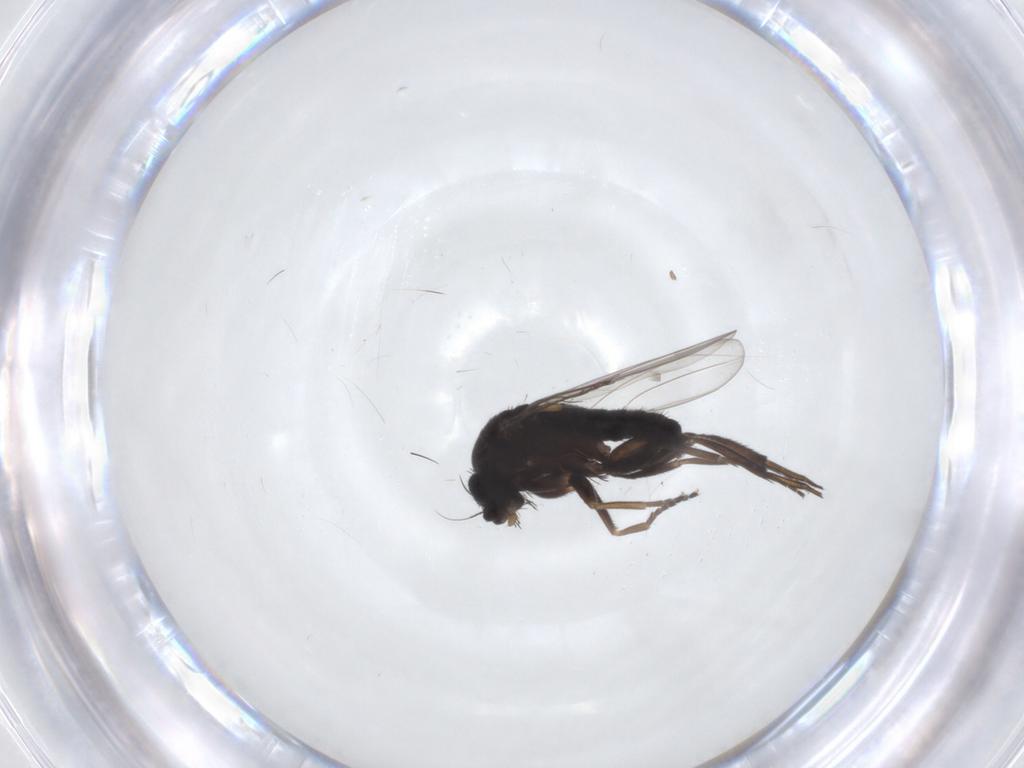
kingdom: Animalia
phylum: Arthropoda
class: Insecta
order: Diptera
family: Phoridae
